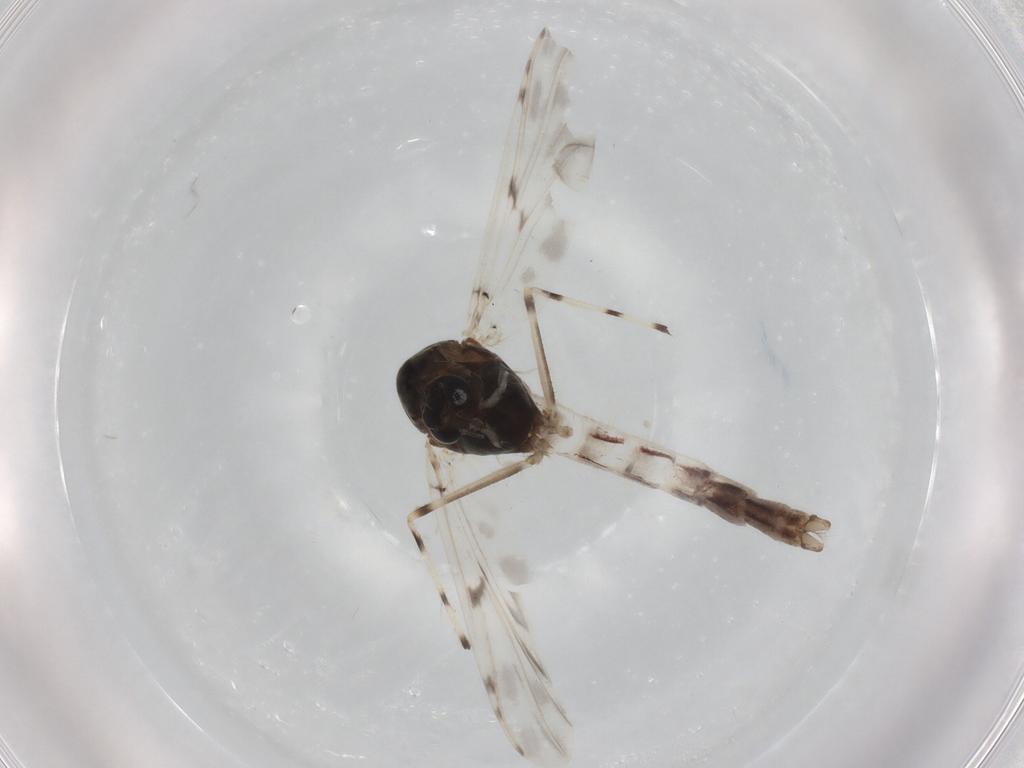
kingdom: Animalia
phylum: Arthropoda
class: Insecta
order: Diptera
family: Chironomidae
